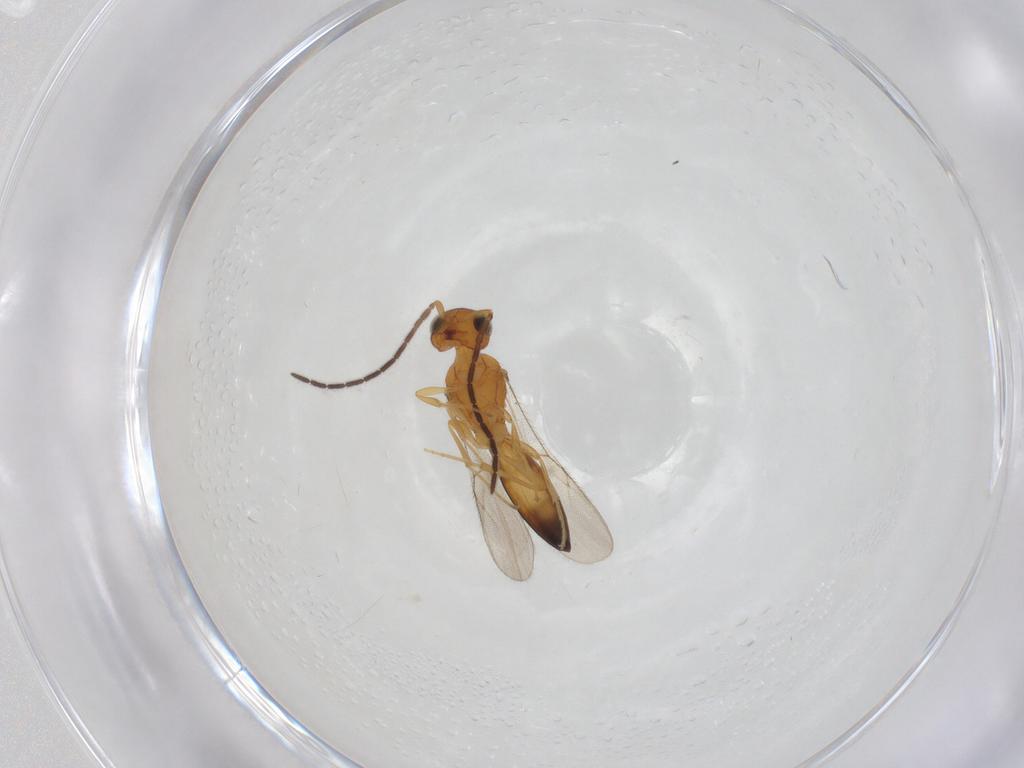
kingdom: Animalia
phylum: Arthropoda
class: Insecta
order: Hymenoptera
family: Scelionidae
